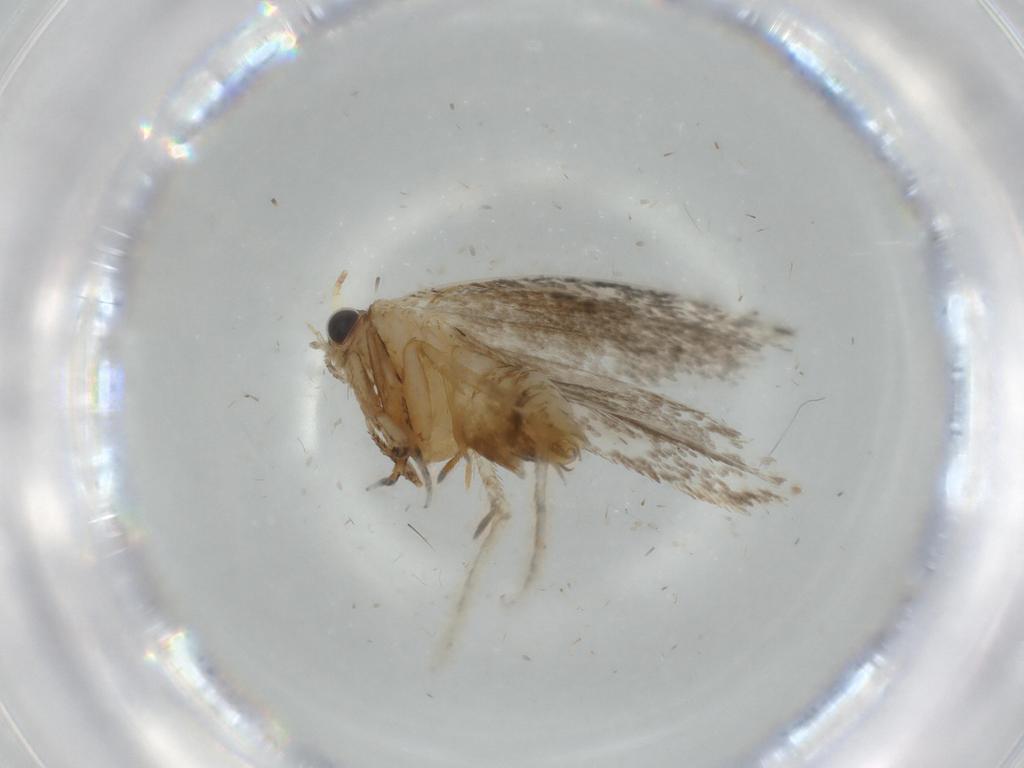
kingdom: Animalia
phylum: Arthropoda
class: Insecta
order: Lepidoptera
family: Tineidae
